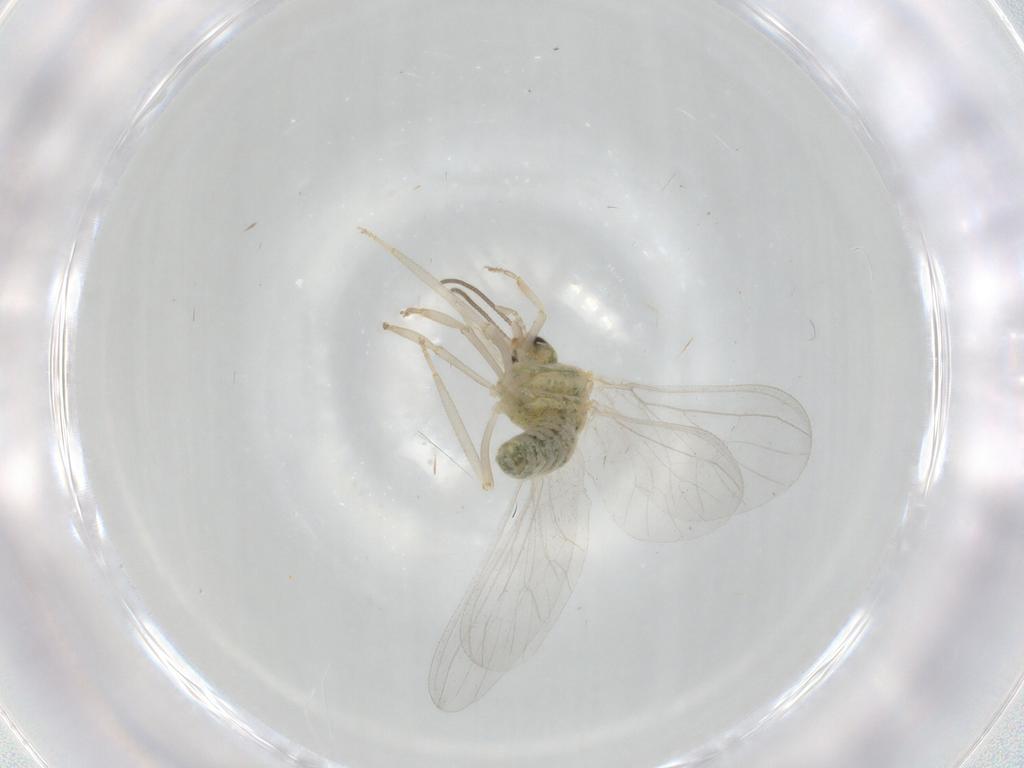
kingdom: Animalia
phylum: Arthropoda
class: Insecta
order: Neuroptera
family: Coniopterygidae
